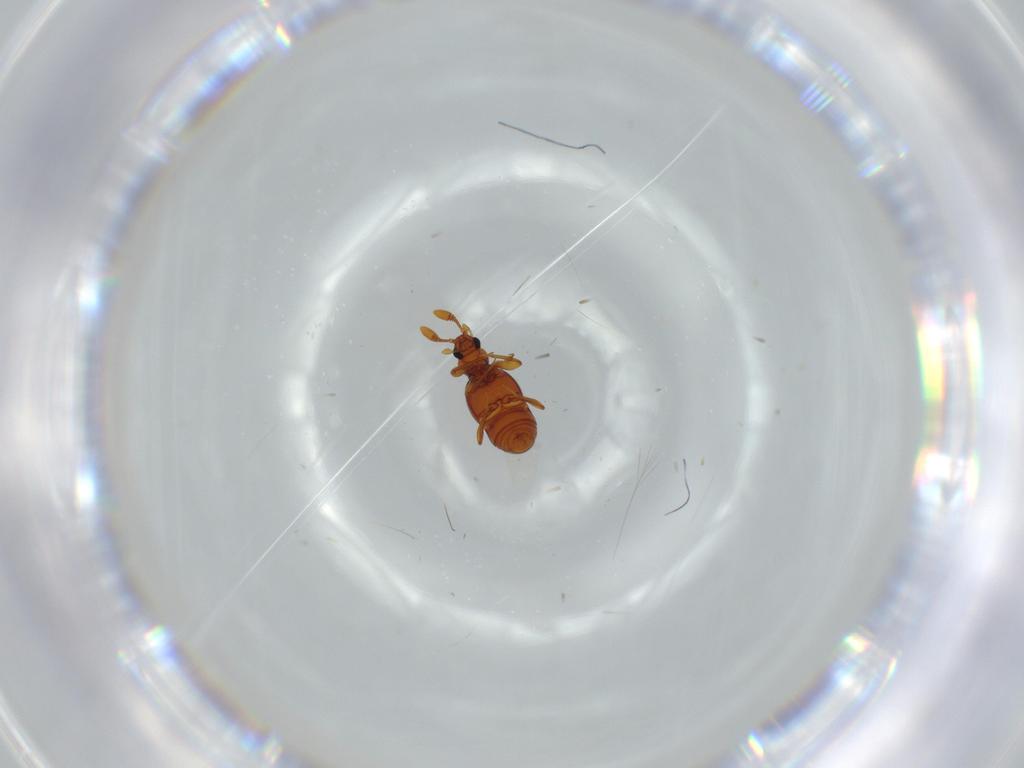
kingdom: Animalia
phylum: Arthropoda
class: Insecta
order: Coleoptera
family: Staphylinidae
